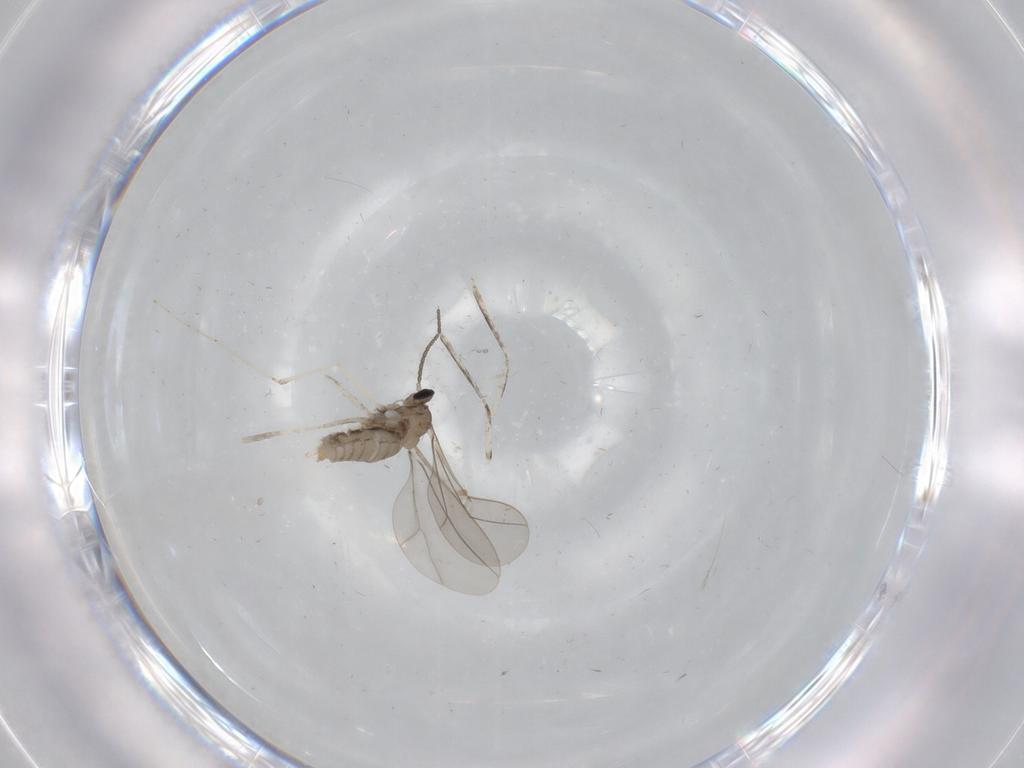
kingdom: Animalia
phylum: Arthropoda
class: Insecta
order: Diptera
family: Cecidomyiidae
